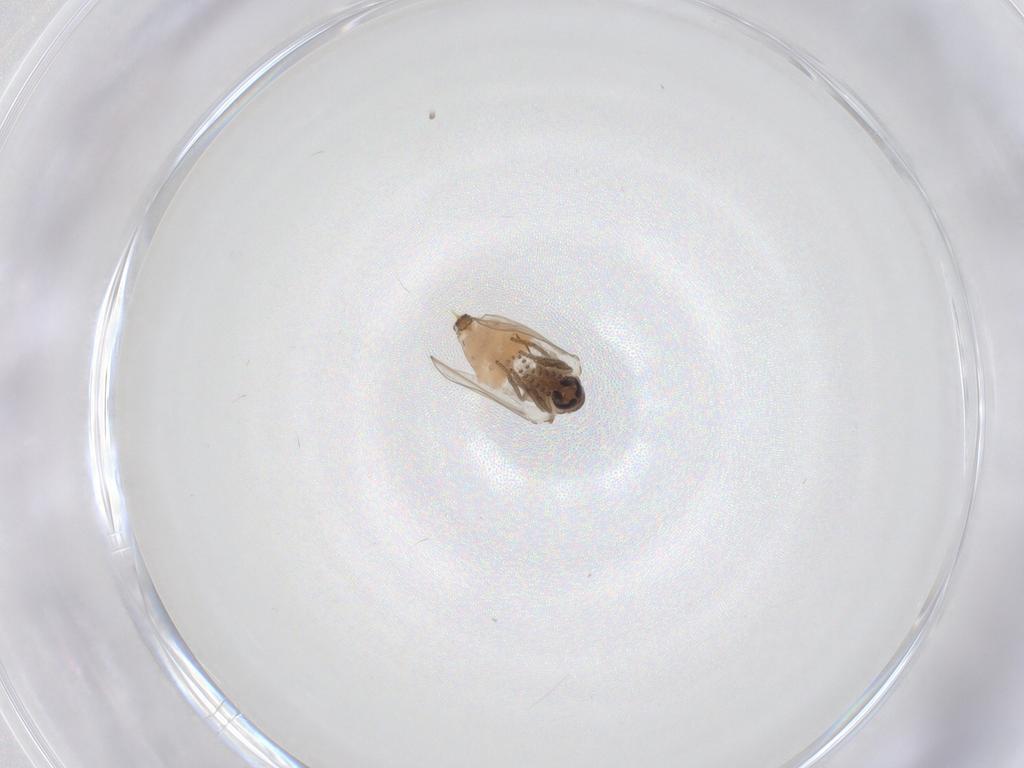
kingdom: Animalia
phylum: Arthropoda
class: Insecta
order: Diptera
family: Psychodidae
